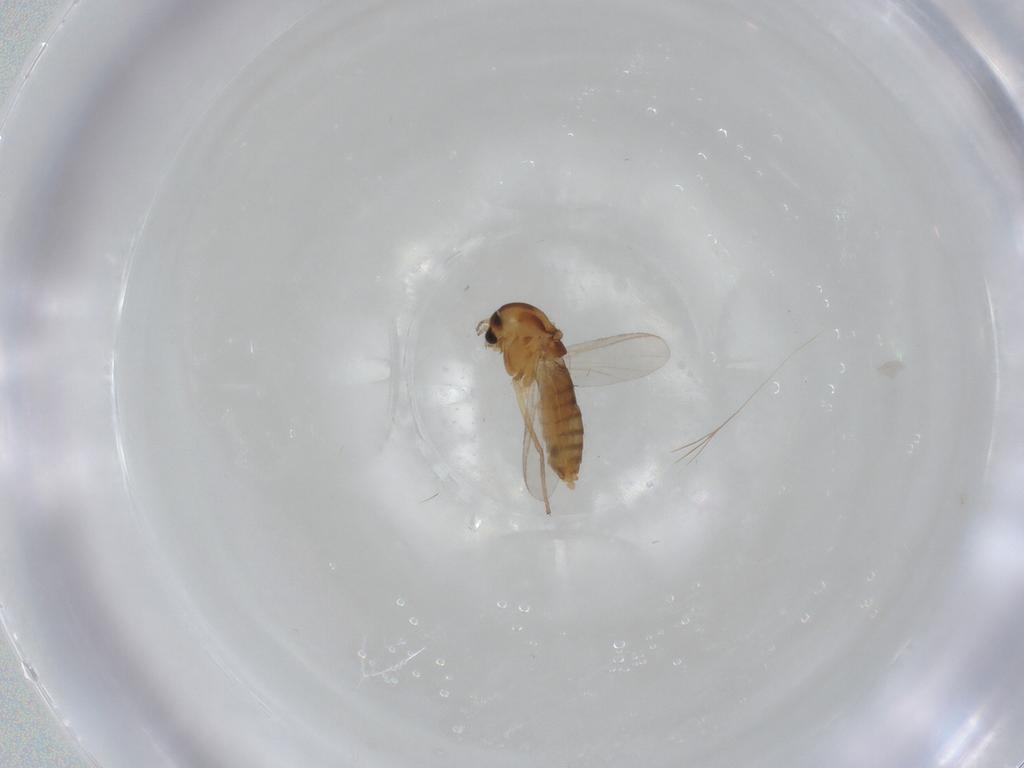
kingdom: Animalia
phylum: Arthropoda
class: Insecta
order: Diptera
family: Chironomidae
